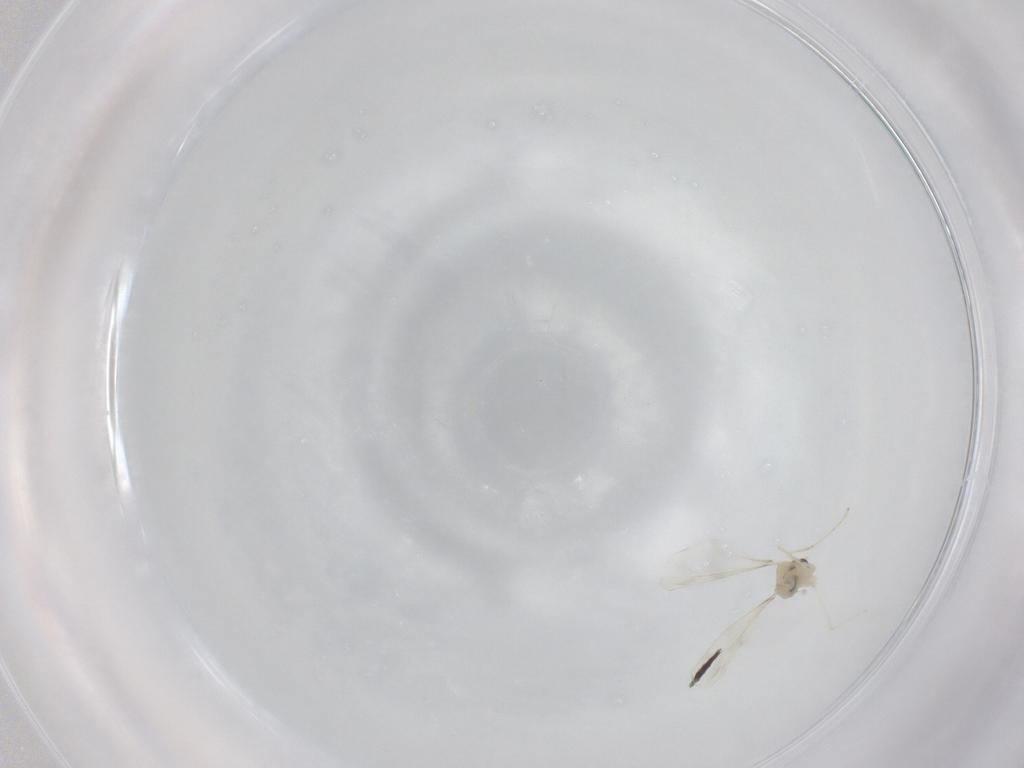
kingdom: Animalia
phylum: Arthropoda
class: Insecta
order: Diptera
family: Cecidomyiidae
